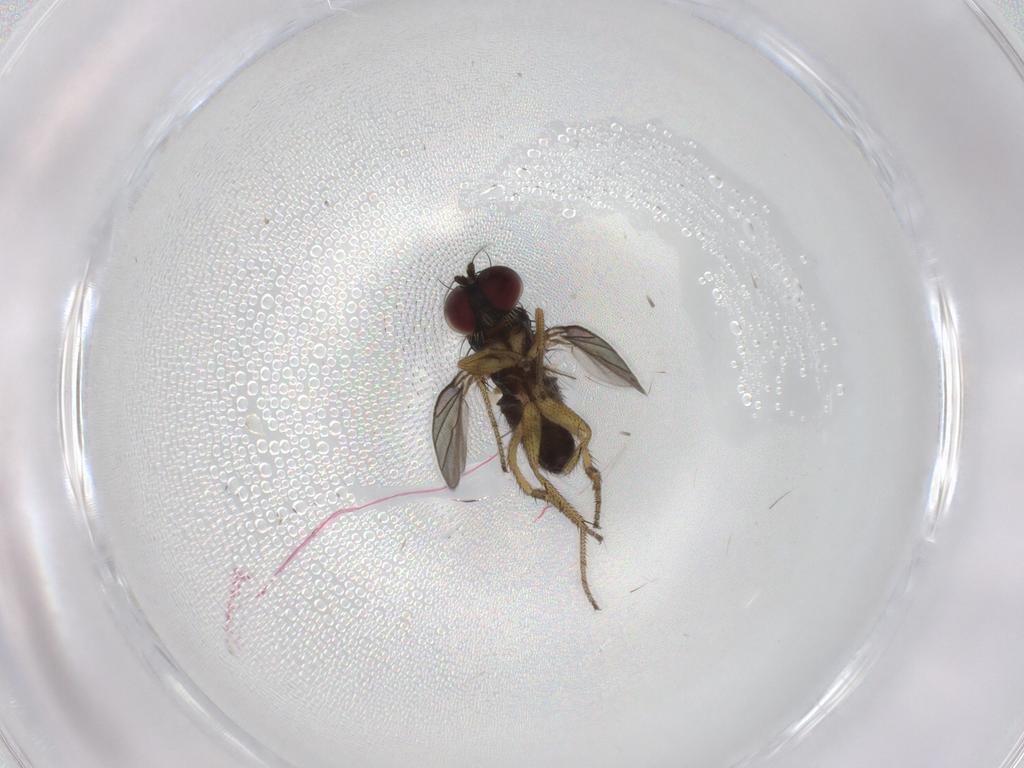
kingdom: Animalia
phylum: Arthropoda
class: Insecta
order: Diptera
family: Chironomidae
